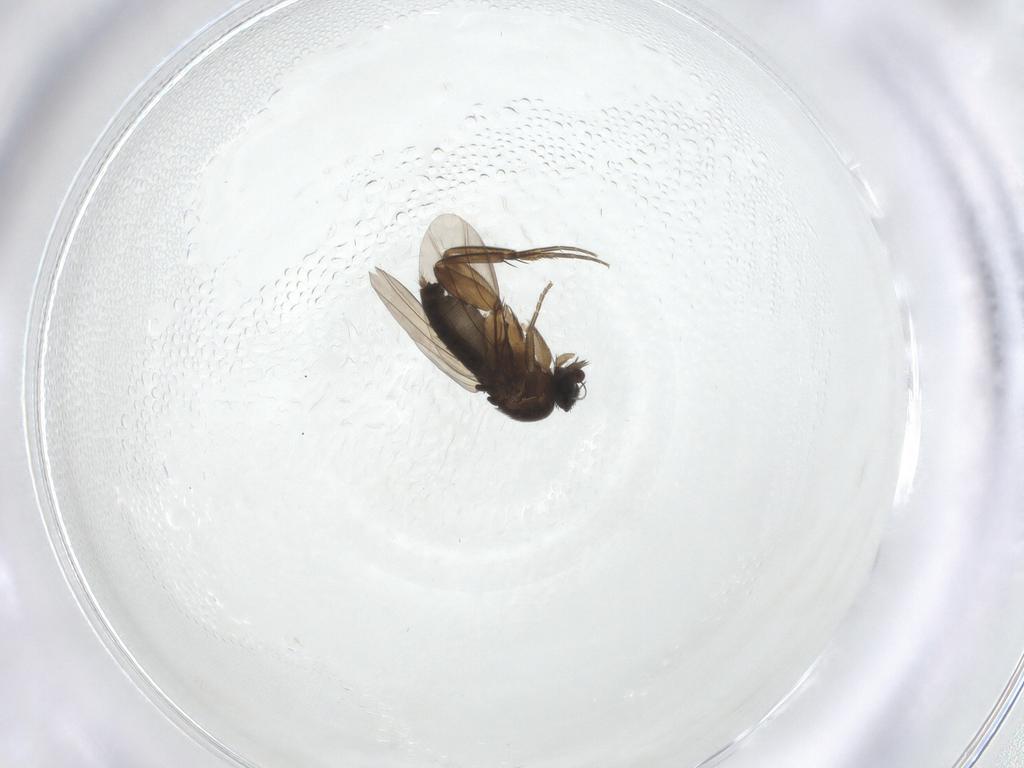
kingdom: Animalia
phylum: Arthropoda
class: Insecta
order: Diptera
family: Phoridae
